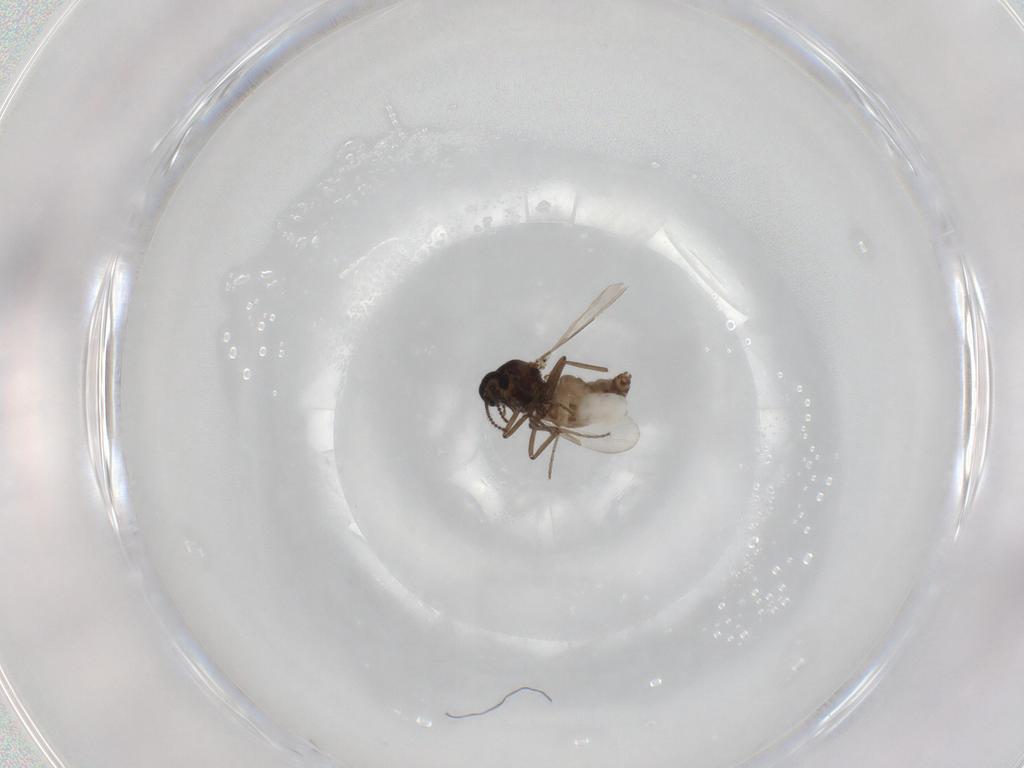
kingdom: Animalia
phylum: Arthropoda
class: Insecta
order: Diptera
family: Ceratopogonidae
